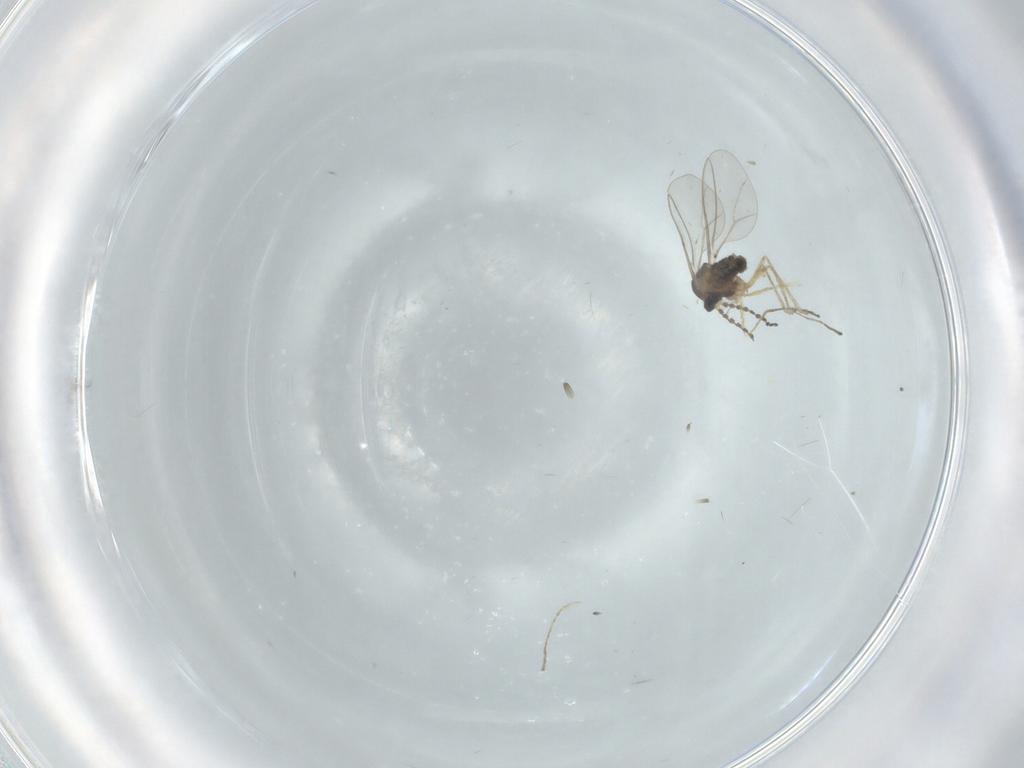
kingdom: Animalia
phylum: Arthropoda
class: Insecta
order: Diptera
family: Cecidomyiidae
